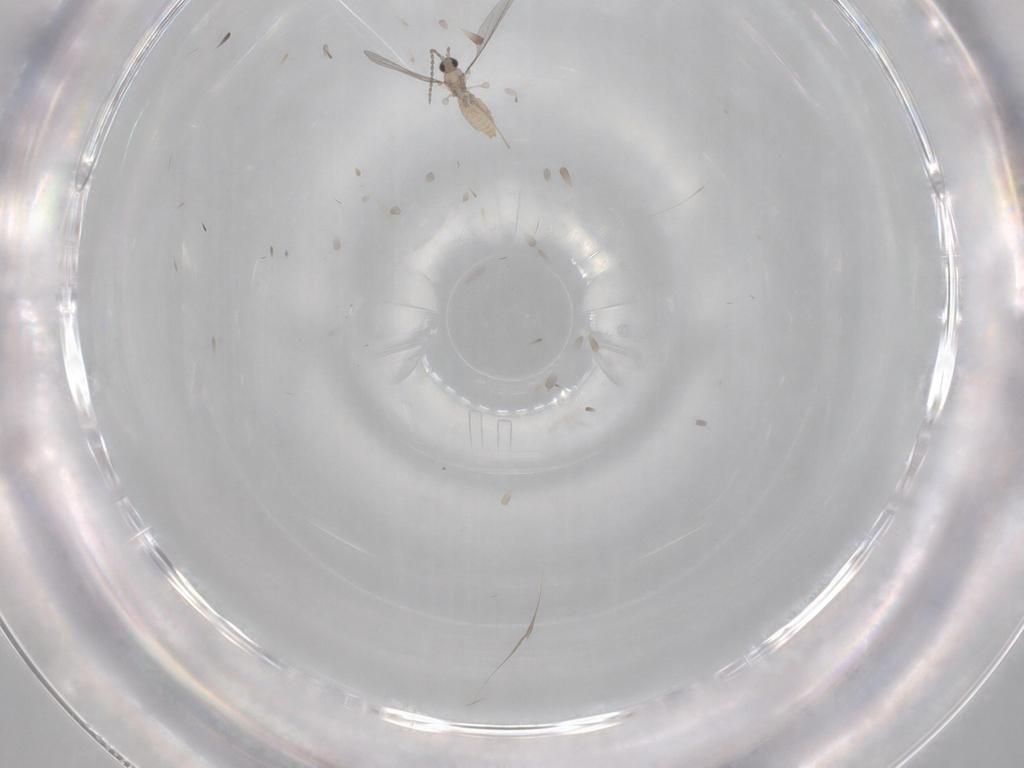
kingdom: Animalia
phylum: Arthropoda
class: Insecta
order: Diptera
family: Cecidomyiidae
